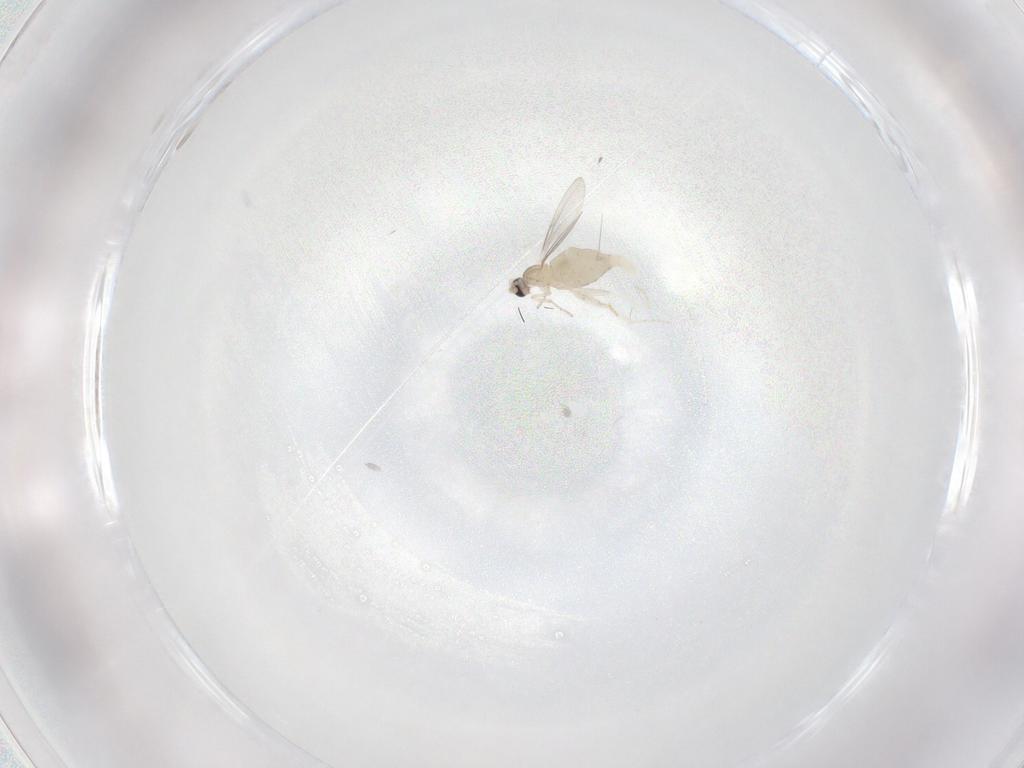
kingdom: Animalia
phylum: Arthropoda
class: Insecta
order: Diptera
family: Cecidomyiidae
